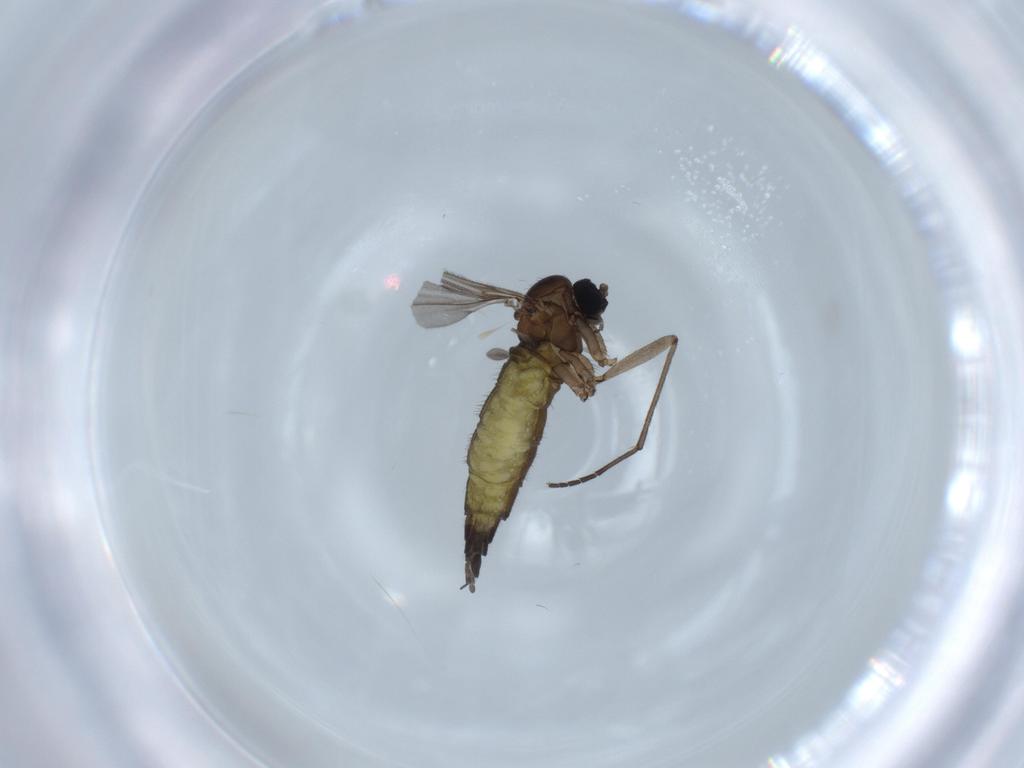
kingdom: Animalia
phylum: Arthropoda
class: Insecta
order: Diptera
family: Sciaridae
